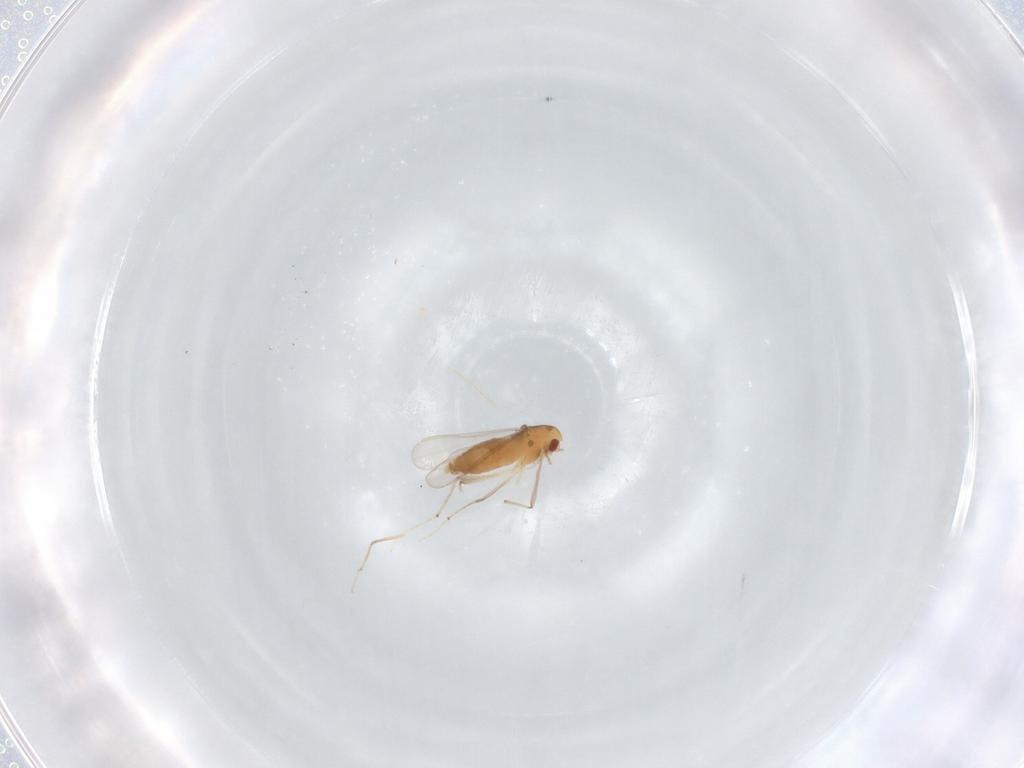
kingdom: Animalia
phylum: Arthropoda
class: Insecta
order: Diptera
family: Chironomidae
